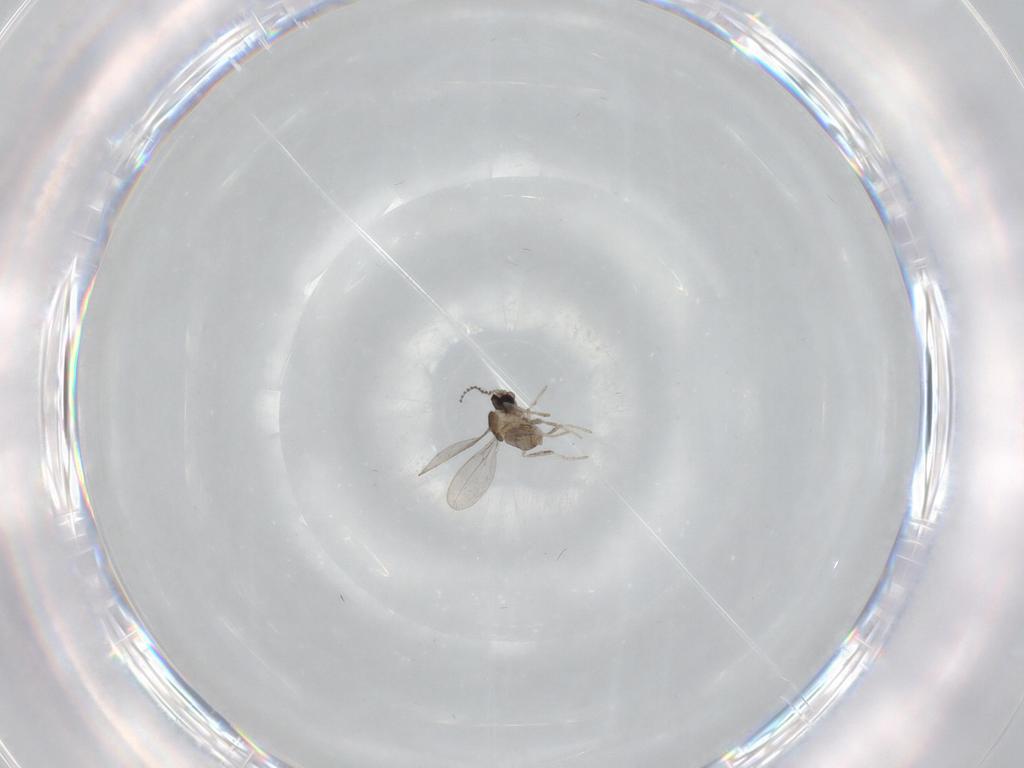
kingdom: Animalia
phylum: Arthropoda
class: Insecta
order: Diptera
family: Cecidomyiidae
